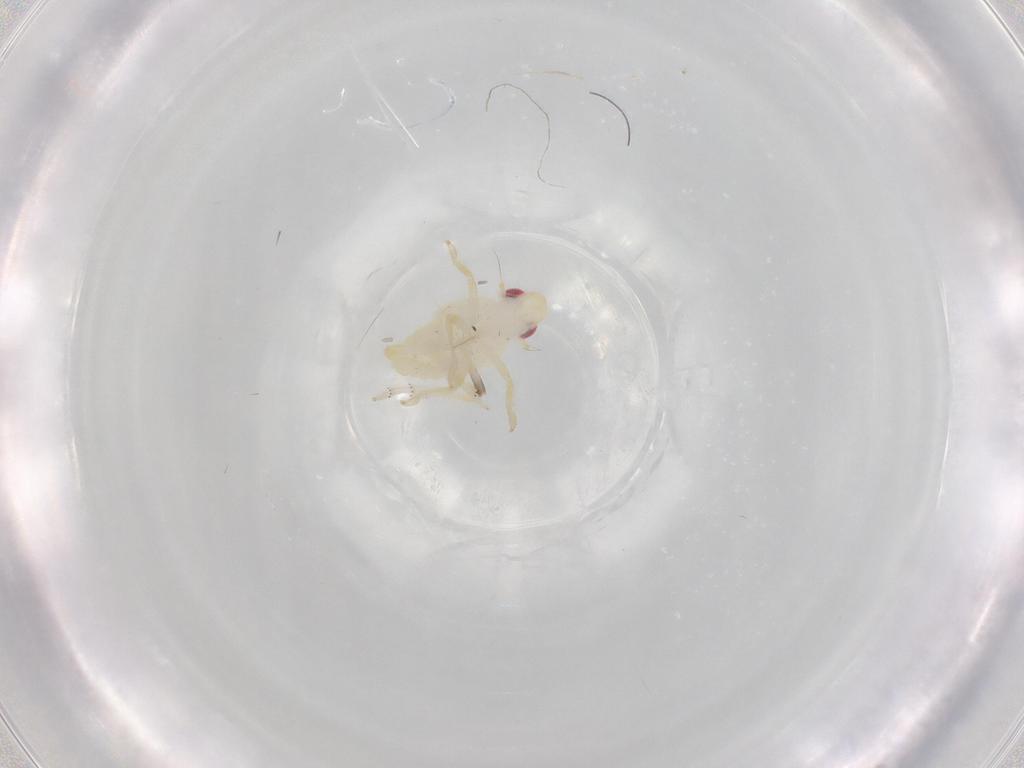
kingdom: Animalia
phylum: Arthropoda
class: Insecta
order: Hemiptera
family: Tropiduchidae
